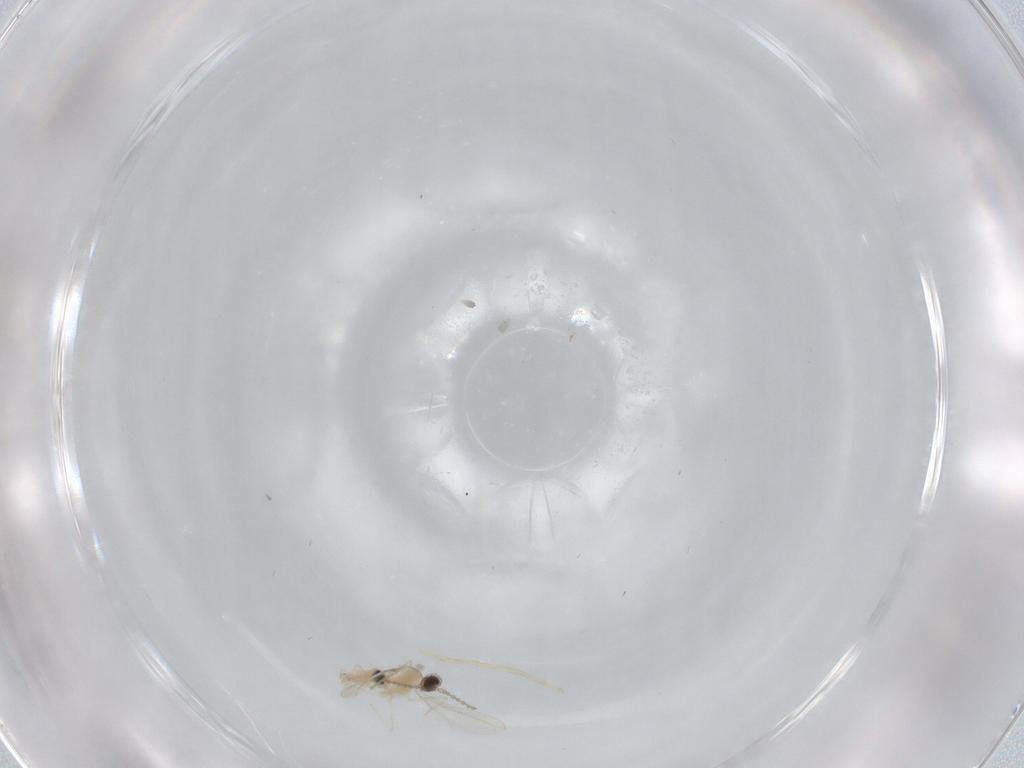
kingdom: Animalia
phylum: Arthropoda
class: Insecta
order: Diptera
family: Cecidomyiidae
